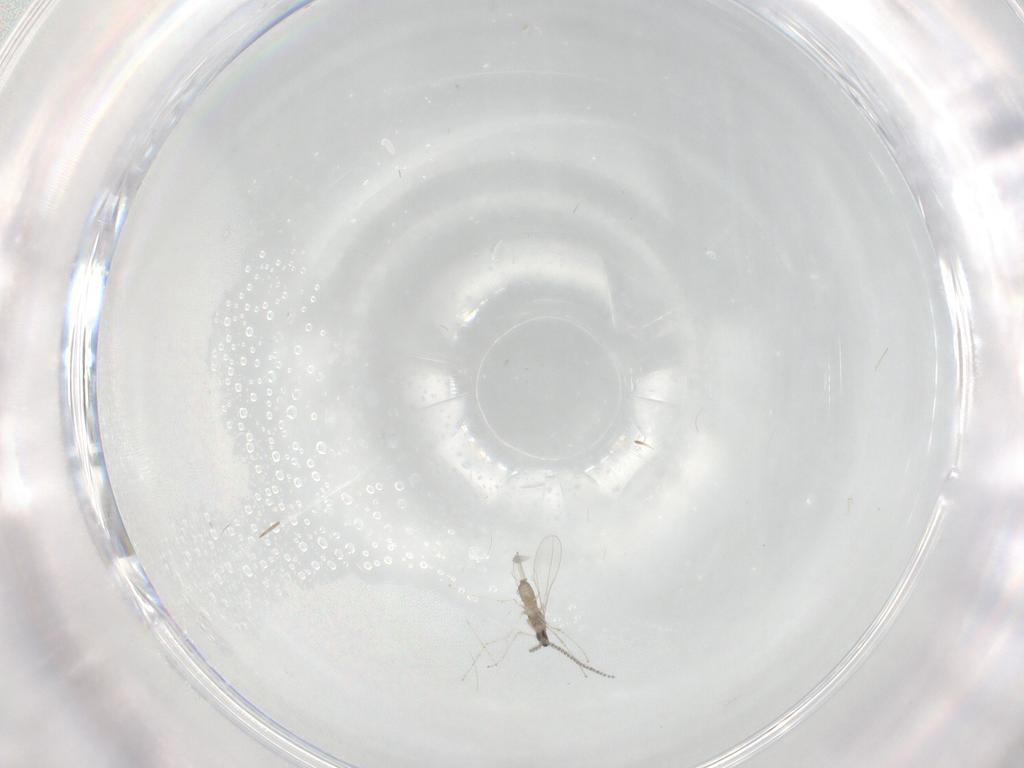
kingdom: Animalia
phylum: Arthropoda
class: Insecta
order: Diptera
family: Cecidomyiidae
